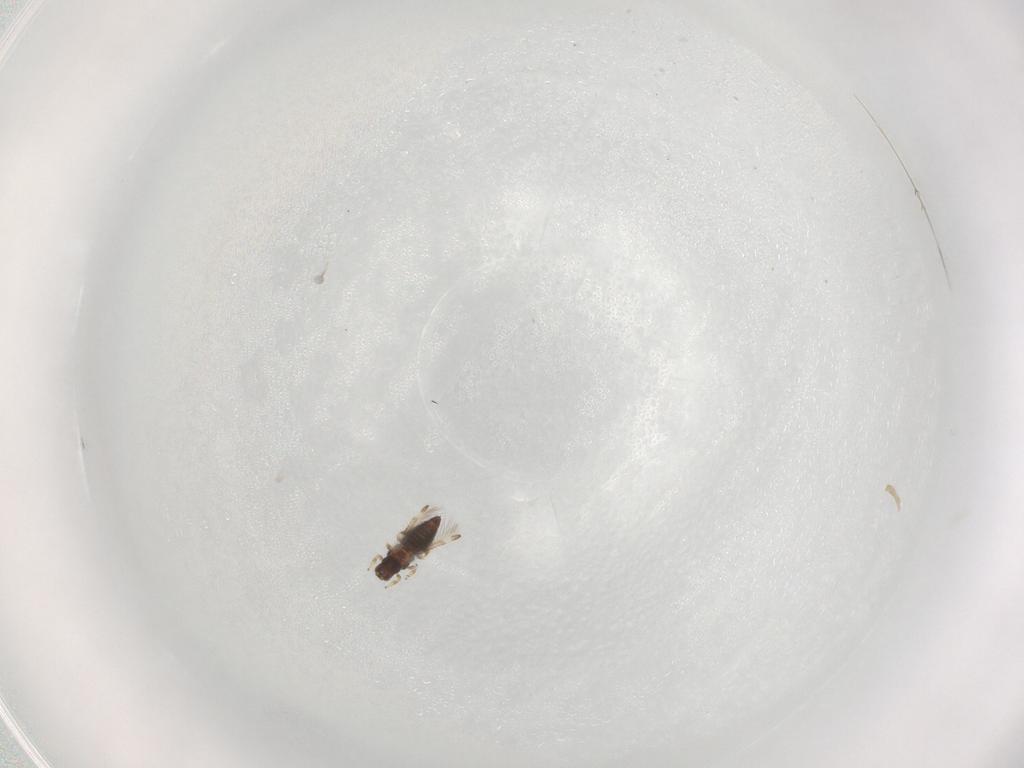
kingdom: Animalia
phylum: Arthropoda
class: Insecta
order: Thysanoptera
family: Thripidae
